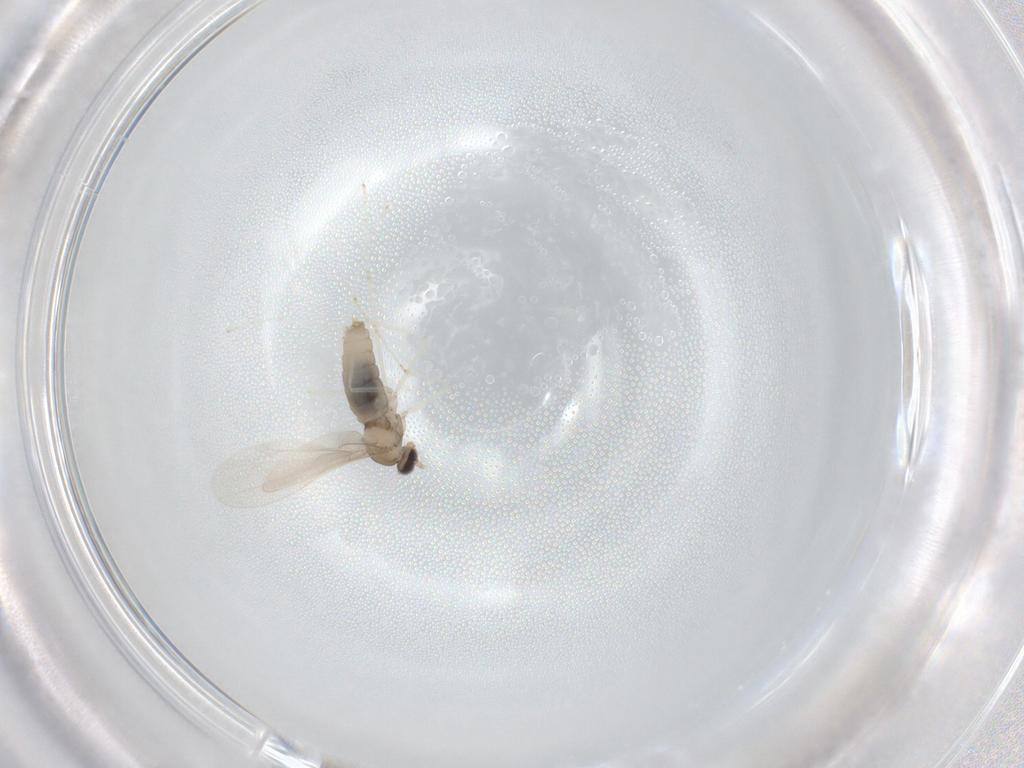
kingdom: Animalia
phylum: Arthropoda
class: Insecta
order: Diptera
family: Cecidomyiidae
